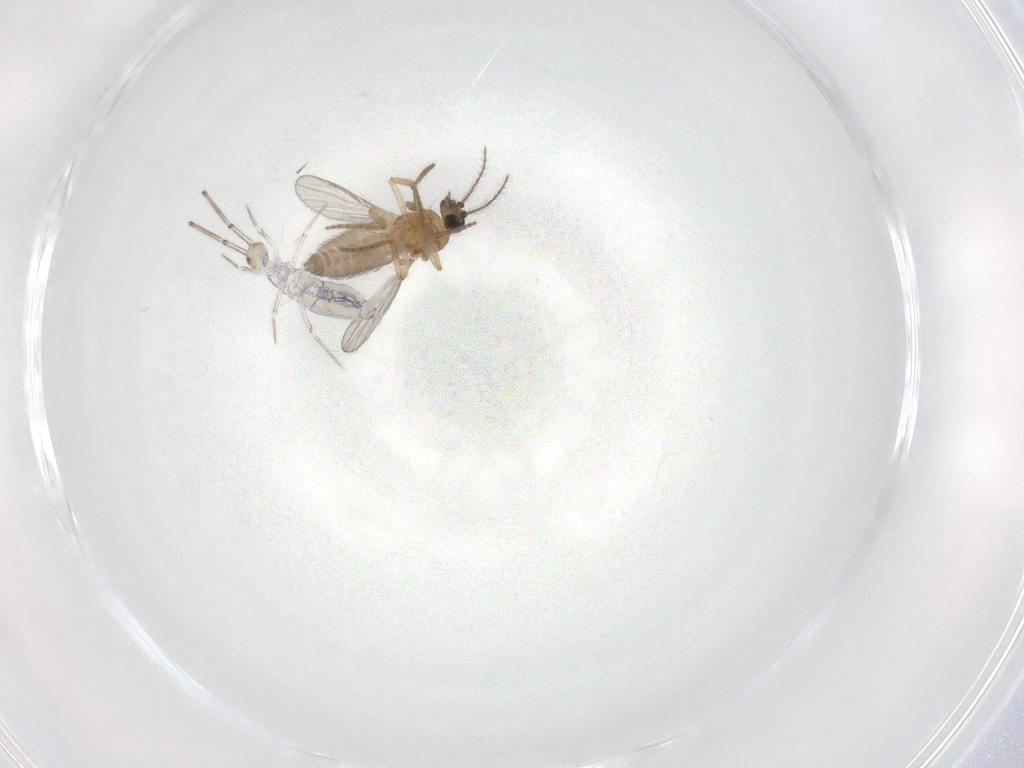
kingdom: Animalia
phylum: Arthropoda
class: Collembola
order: Entomobryomorpha
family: Entomobryidae
